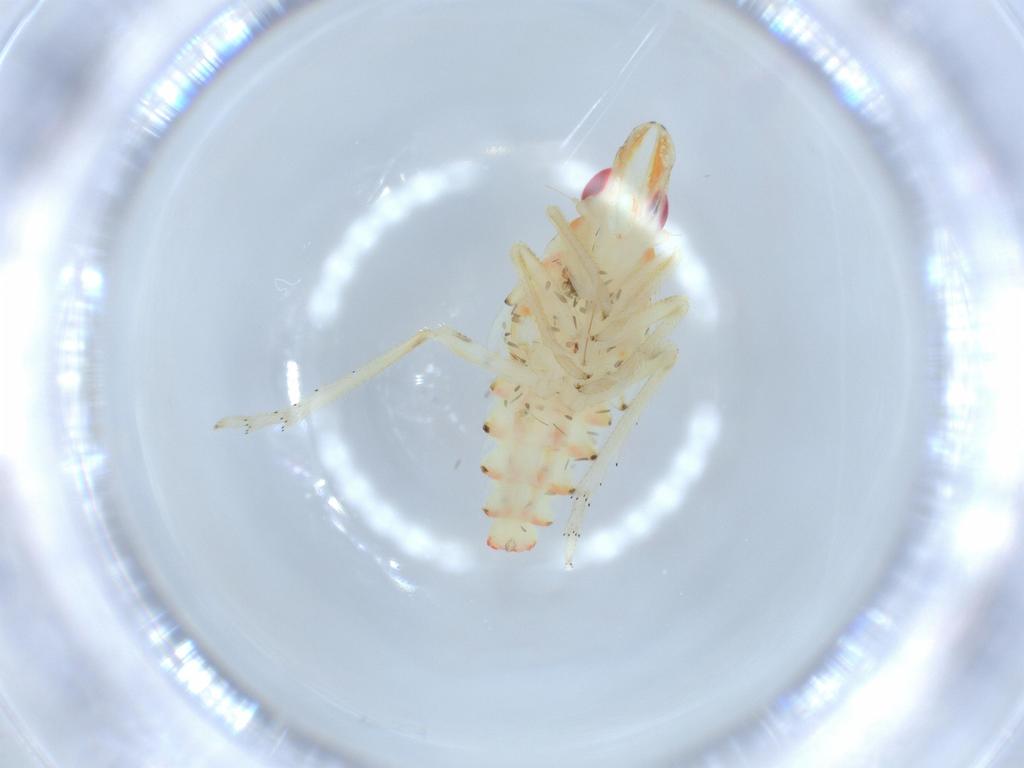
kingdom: Animalia
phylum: Arthropoda
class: Insecta
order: Hemiptera
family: Tropiduchidae
